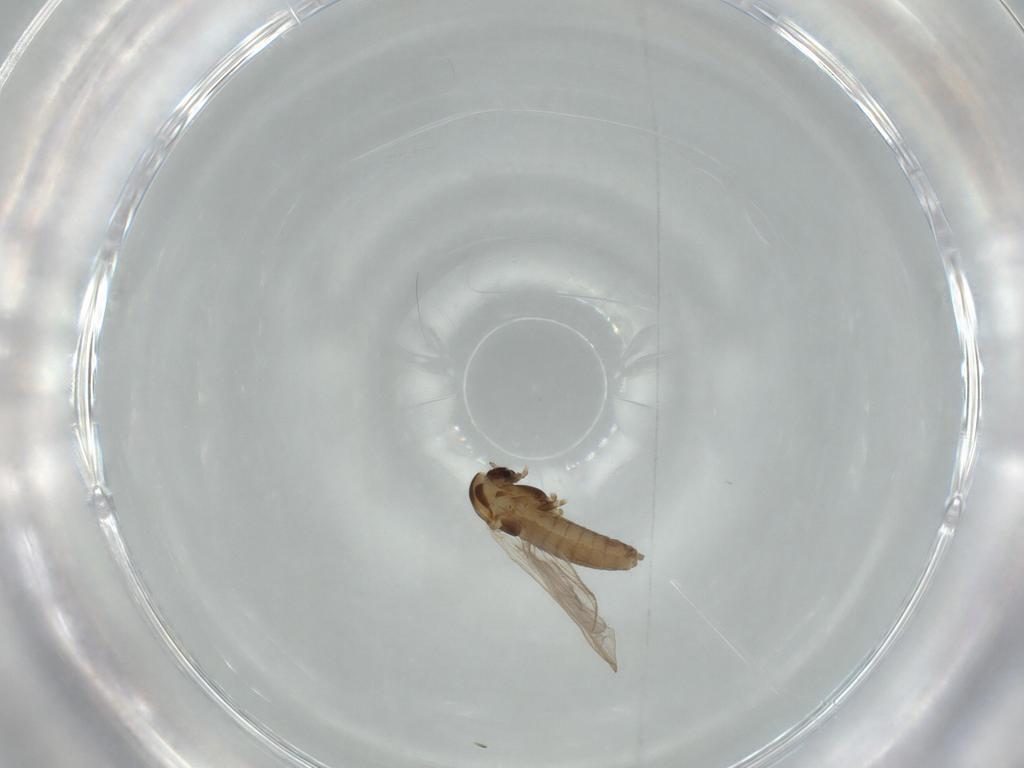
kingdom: Animalia
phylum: Arthropoda
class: Insecta
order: Diptera
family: Chironomidae
